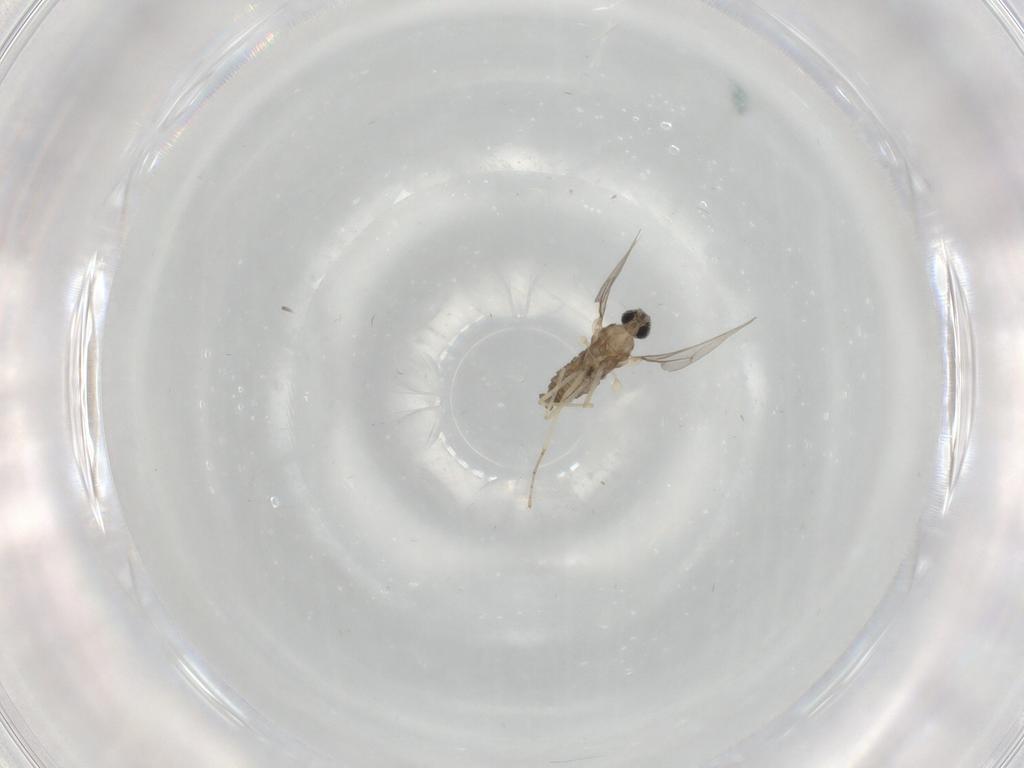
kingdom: Animalia
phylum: Arthropoda
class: Insecta
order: Diptera
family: Cecidomyiidae
